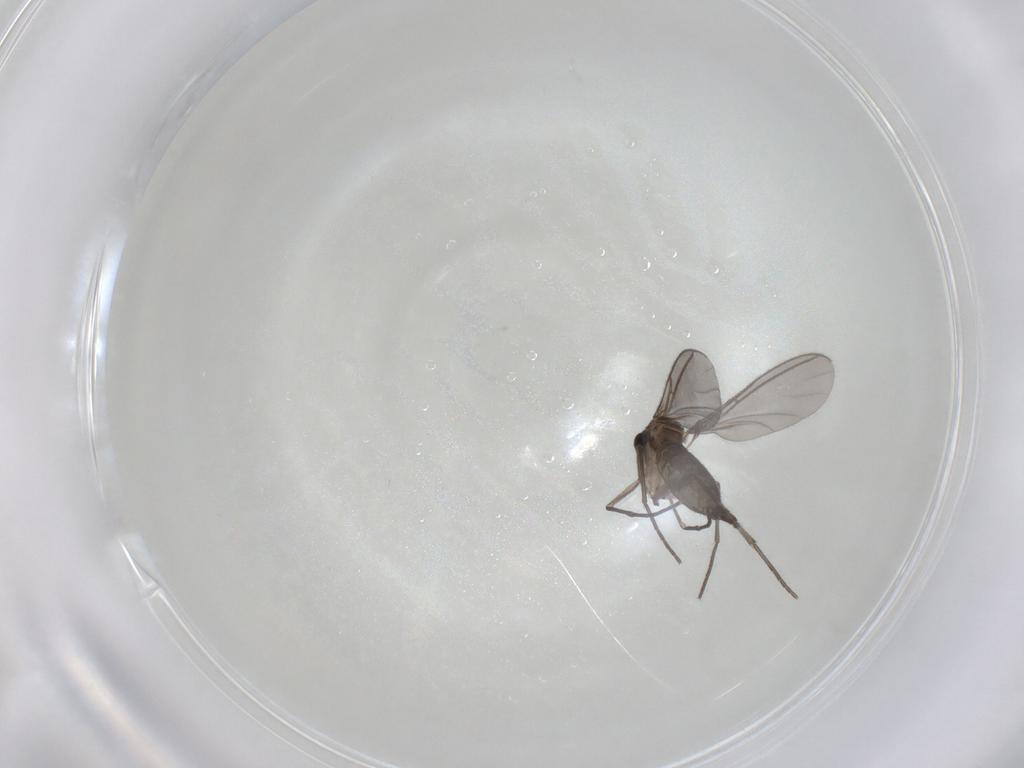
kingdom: Animalia
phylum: Arthropoda
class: Insecta
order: Diptera
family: Sciaridae
